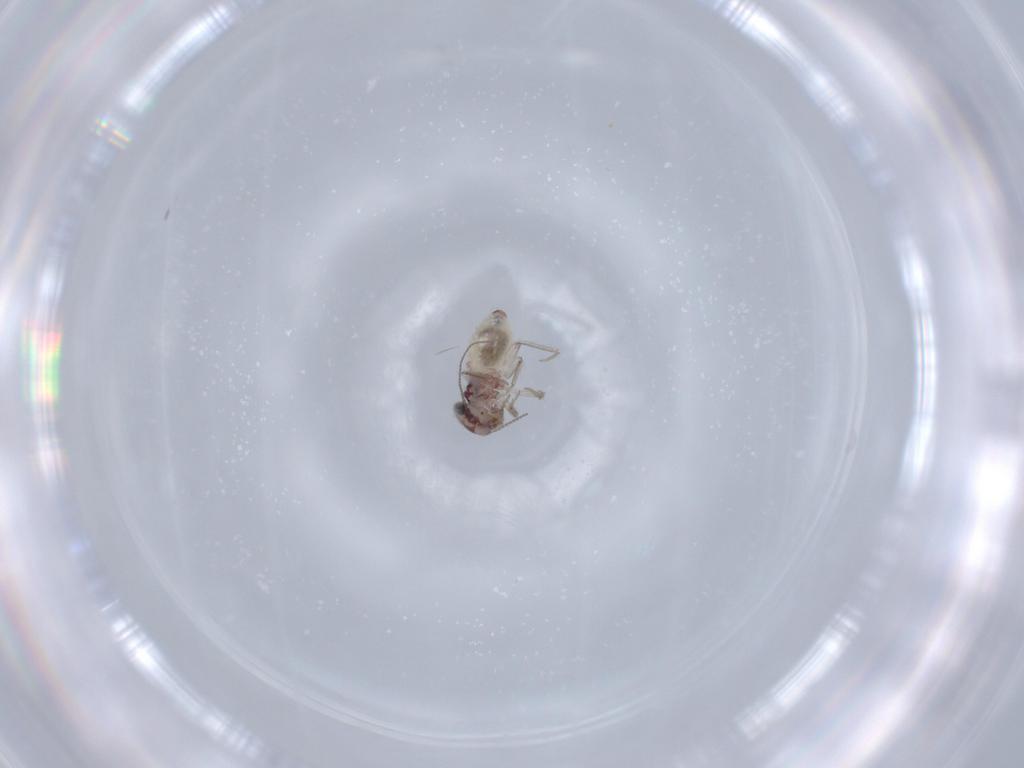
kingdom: Animalia
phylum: Arthropoda
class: Insecta
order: Psocodea
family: Lepidopsocidae
